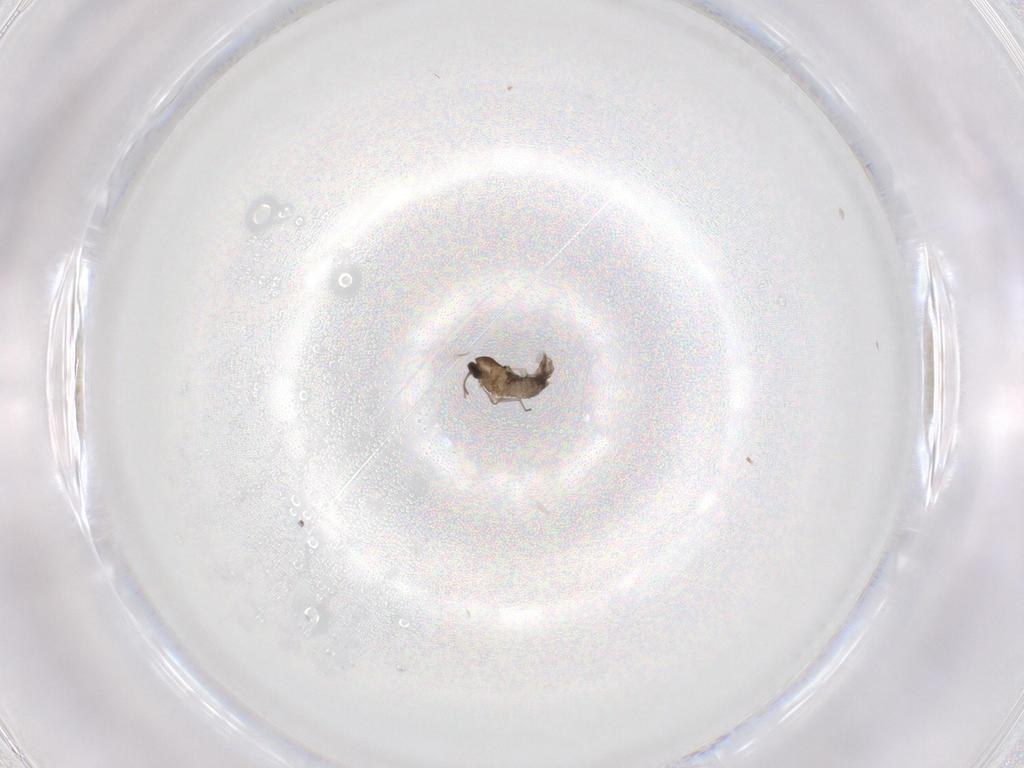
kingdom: Animalia
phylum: Arthropoda
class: Insecta
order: Diptera
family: Chironomidae
